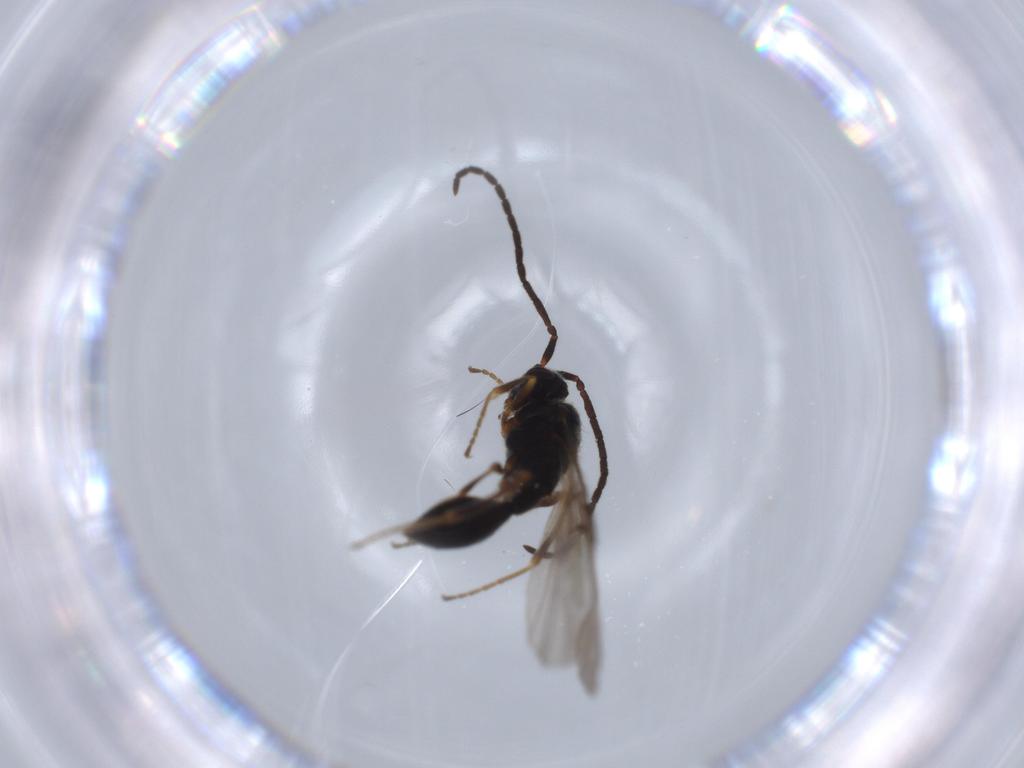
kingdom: Animalia
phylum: Arthropoda
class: Insecta
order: Hymenoptera
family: Diapriidae
